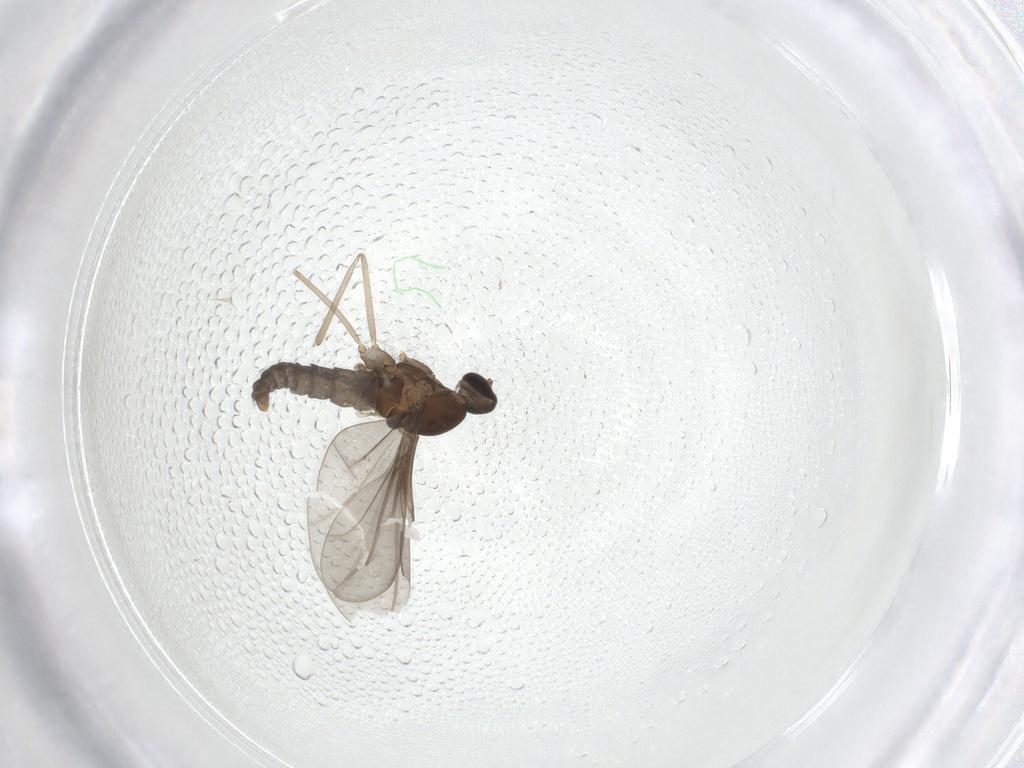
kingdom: Animalia
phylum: Arthropoda
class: Insecta
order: Diptera
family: Cecidomyiidae
